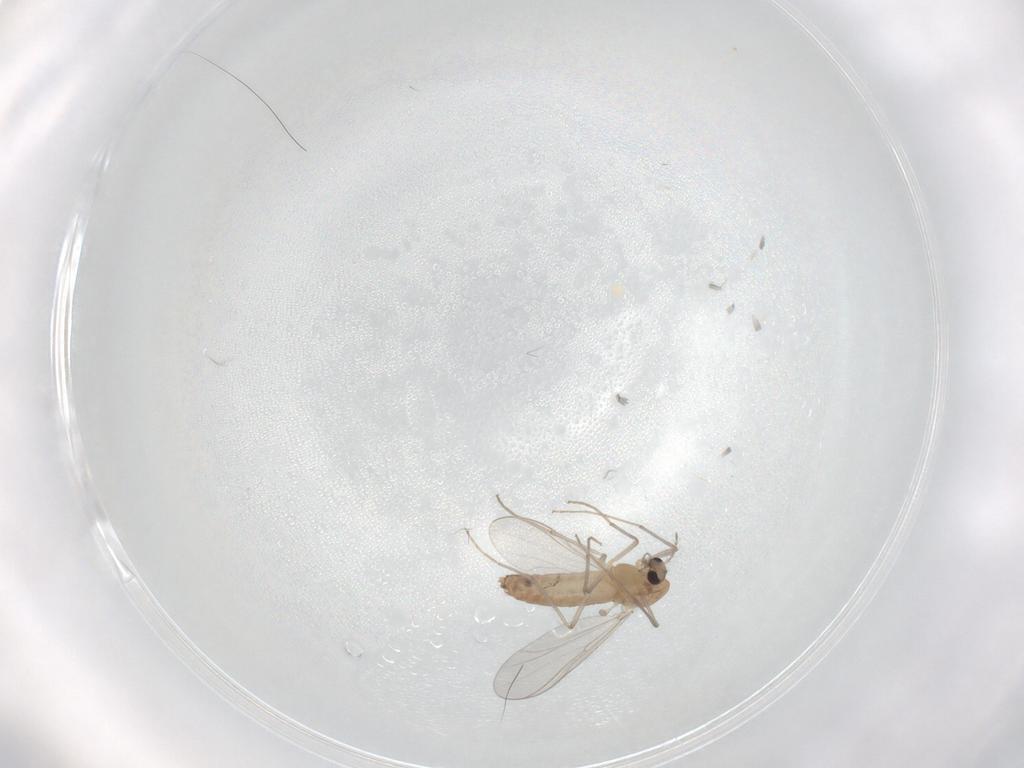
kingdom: Animalia
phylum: Arthropoda
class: Insecta
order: Diptera
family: Chironomidae
